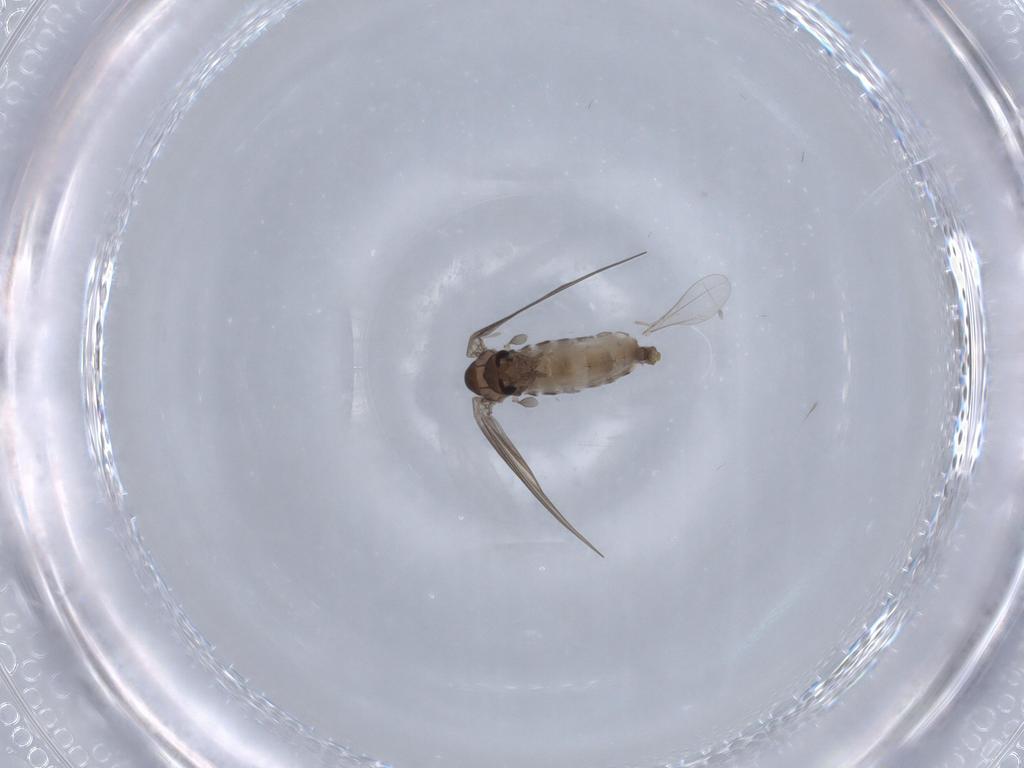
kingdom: Animalia
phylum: Arthropoda
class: Insecta
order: Diptera
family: Psychodidae
